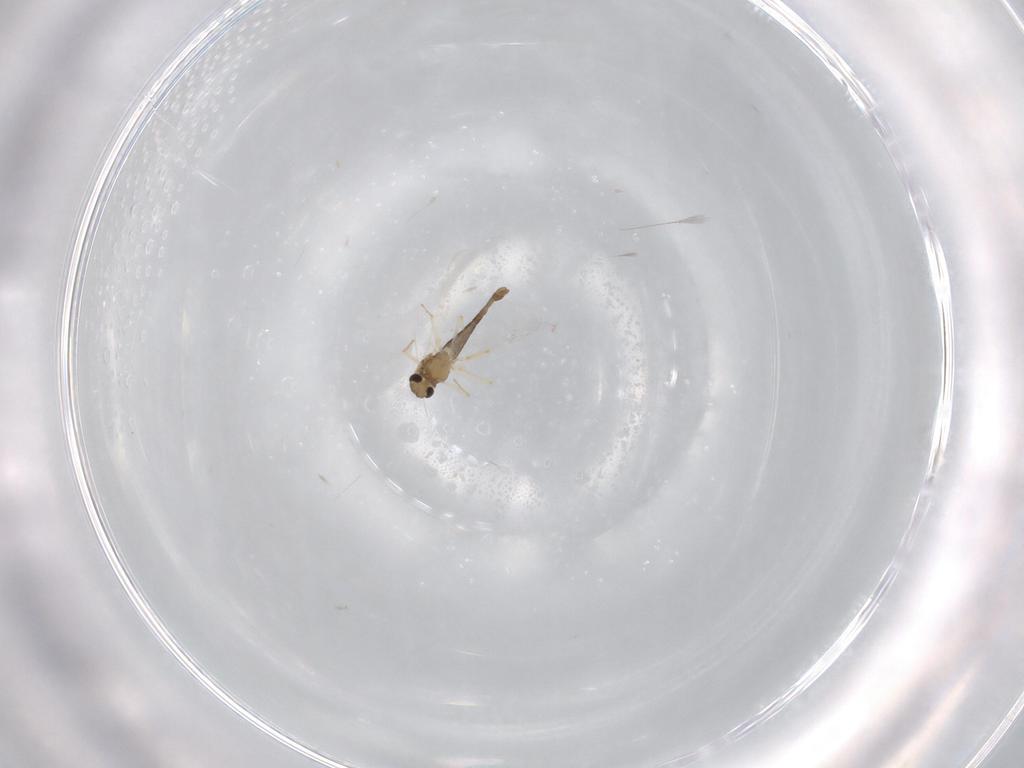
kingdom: Animalia
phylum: Arthropoda
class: Insecta
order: Diptera
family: Chironomidae
